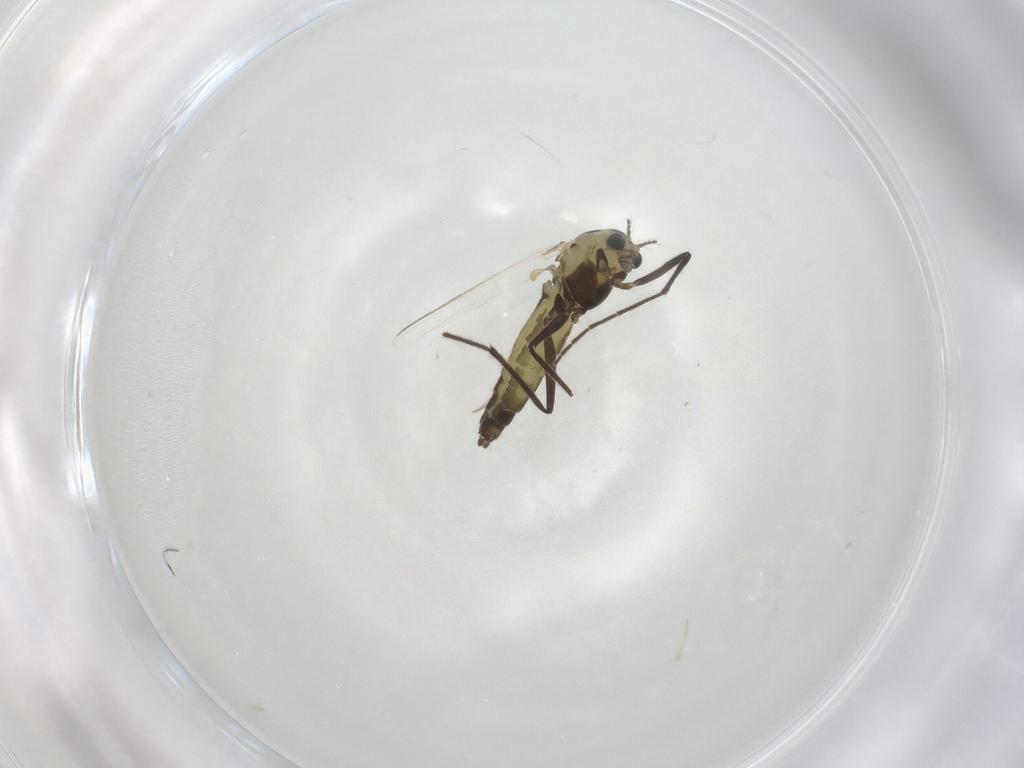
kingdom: Animalia
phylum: Arthropoda
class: Insecta
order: Diptera
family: Chironomidae
